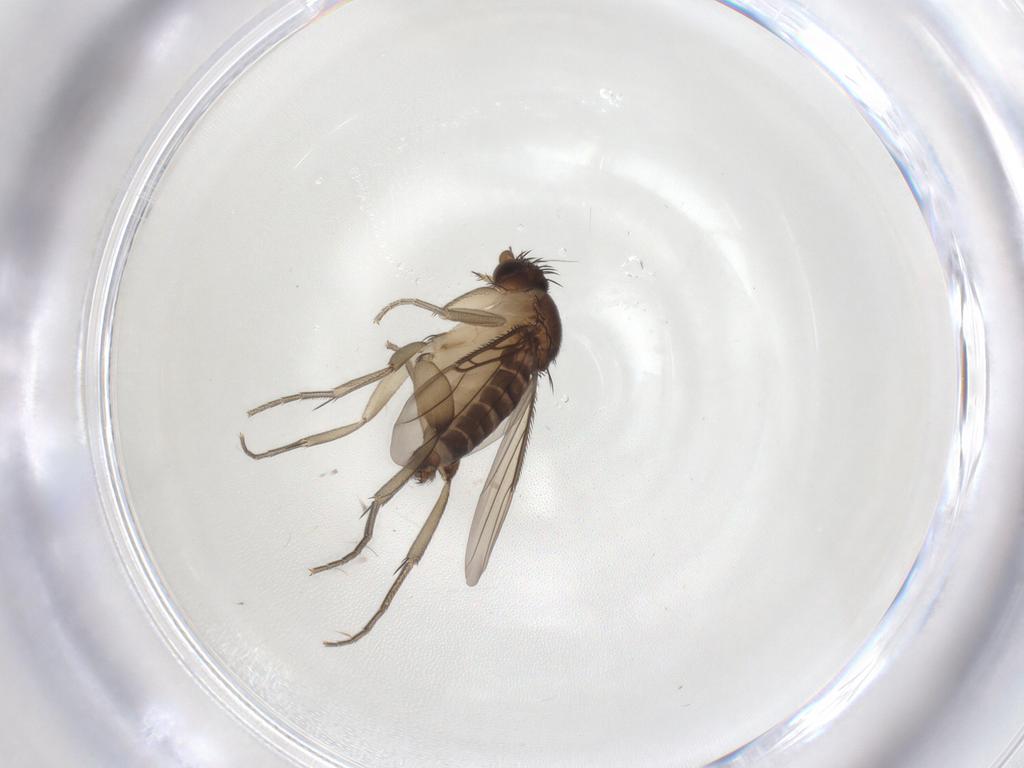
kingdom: Animalia
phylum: Arthropoda
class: Insecta
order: Diptera
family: Phoridae
